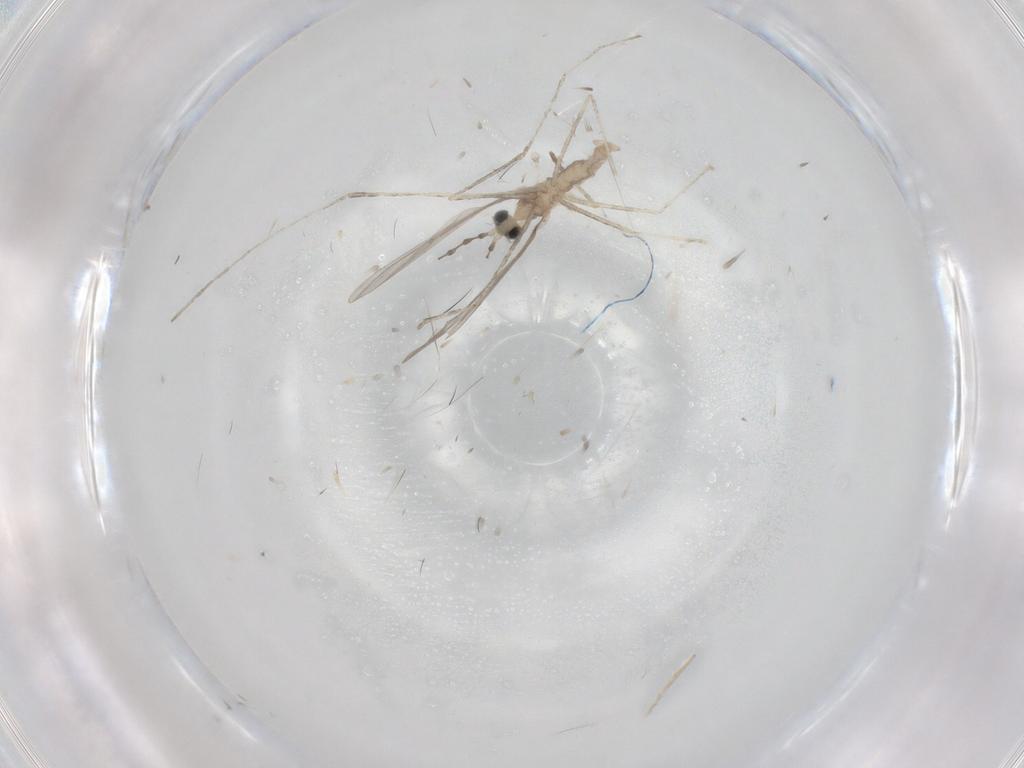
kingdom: Animalia
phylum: Arthropoda
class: Insecta
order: Diptera
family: Cecidomyiidae
